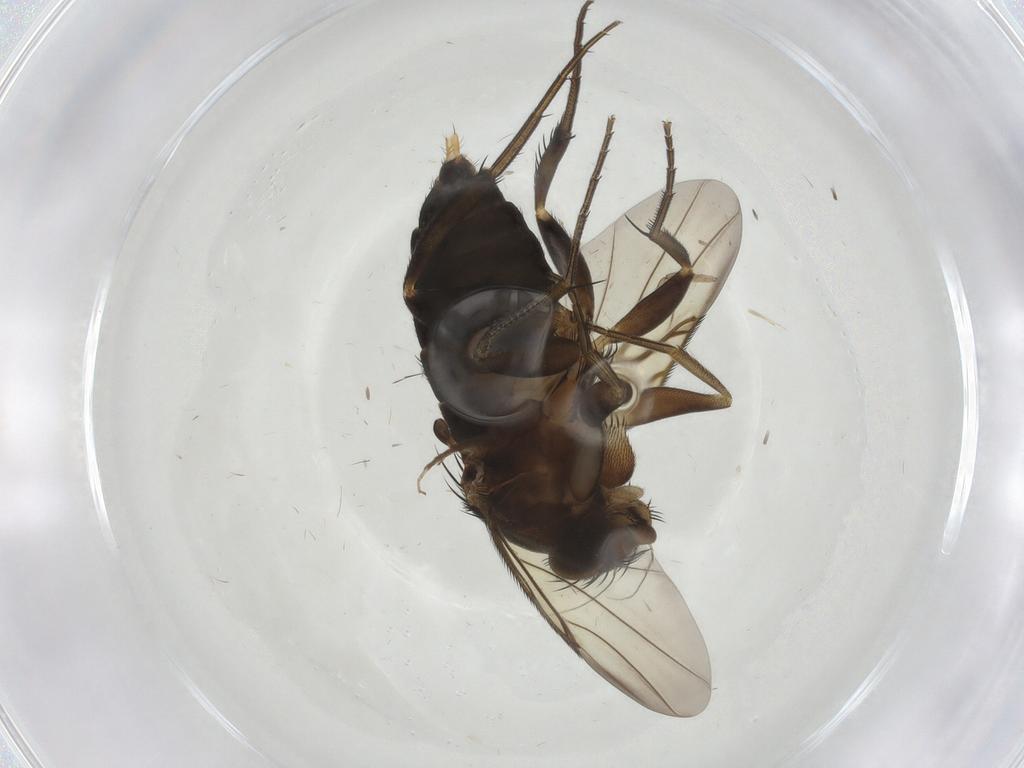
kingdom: Animalia
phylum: Arthropoda
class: Insecta
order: Diptera
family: Phoridae
